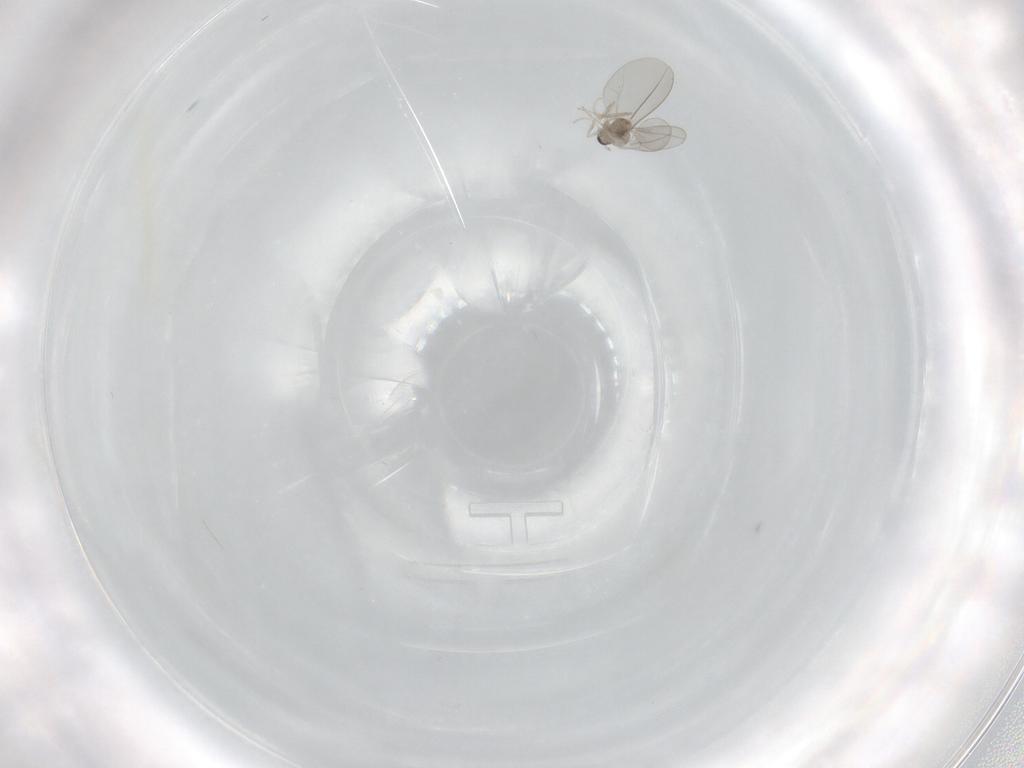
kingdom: Animalia
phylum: Arthropoda
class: Insecta
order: Diptera
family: Cecidomyiidae
